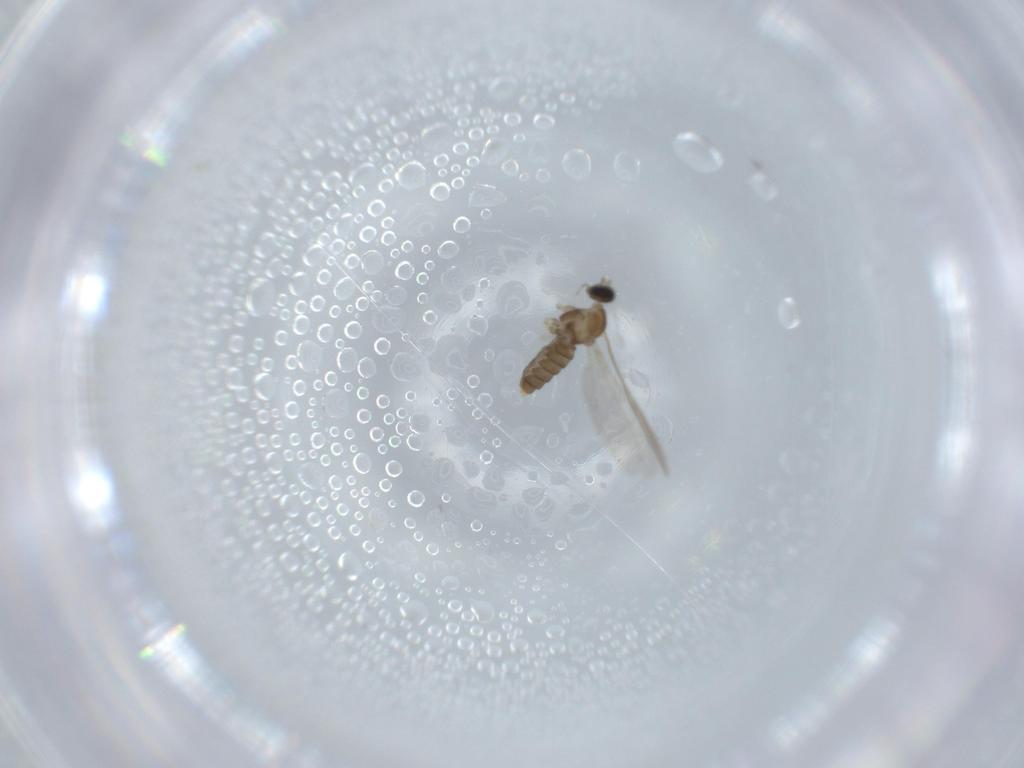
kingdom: Animalia
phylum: Arthropoda
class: Insecta
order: Diptera
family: Cecidomyiidae
